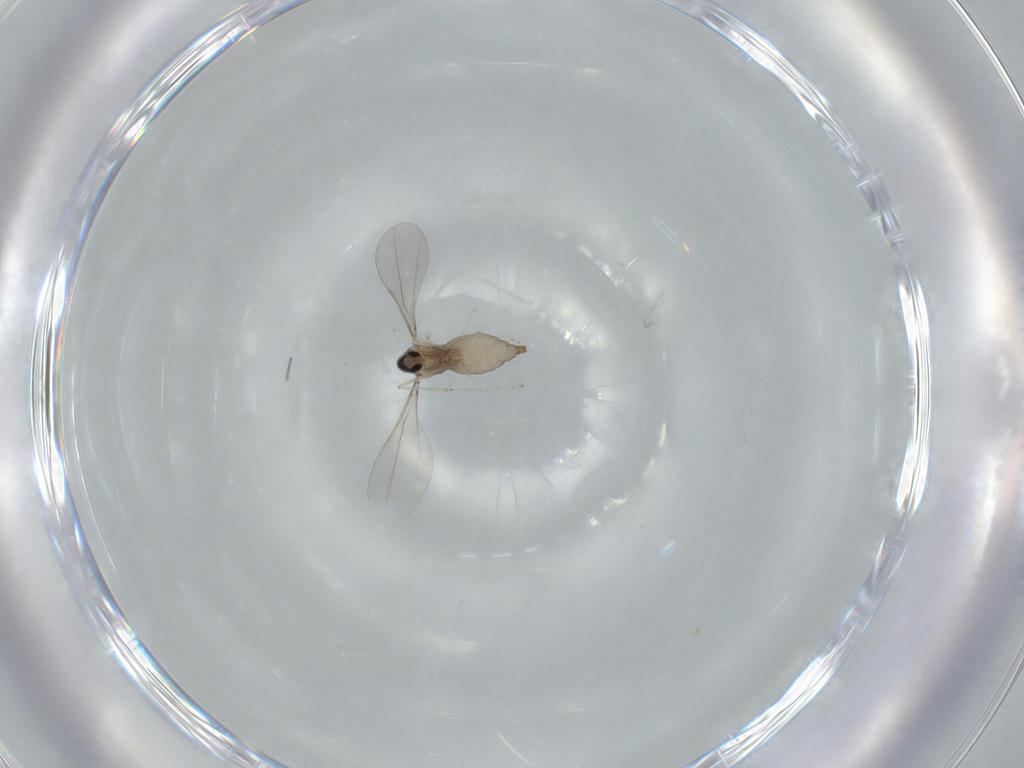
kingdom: Animalia
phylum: Arthropoda
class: Insecta
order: Diptera
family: Cecidomyiidae
